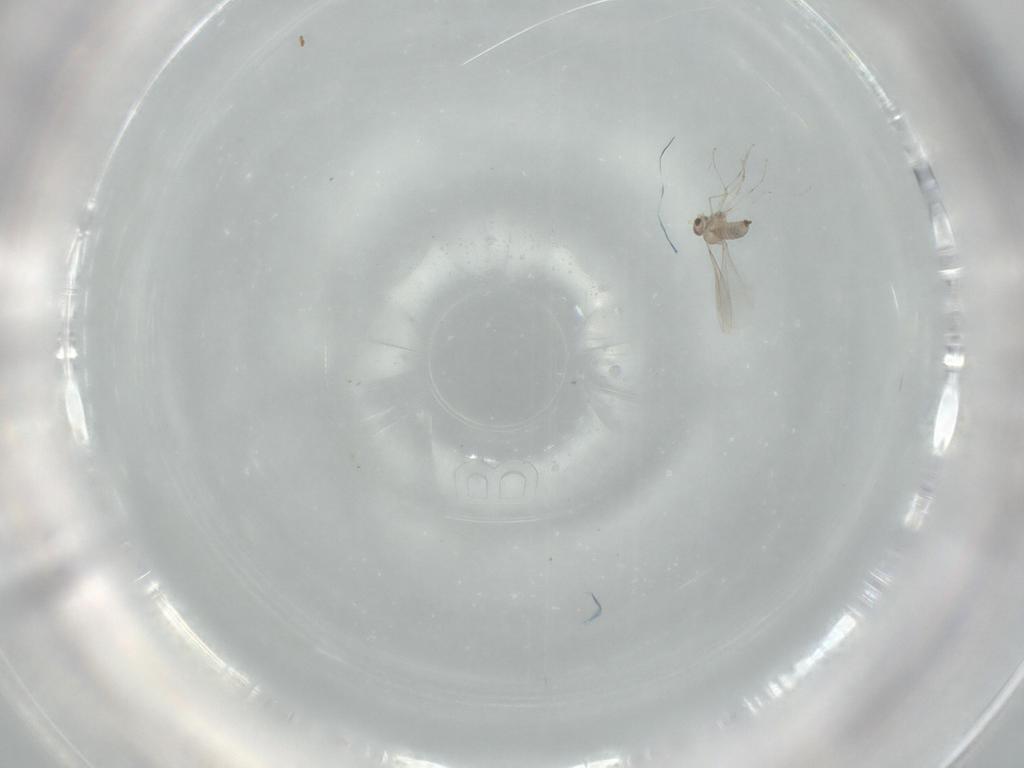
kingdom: Animalia
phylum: Arthropoda
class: Insecta
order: Diptera
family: Cecidomyiidae
